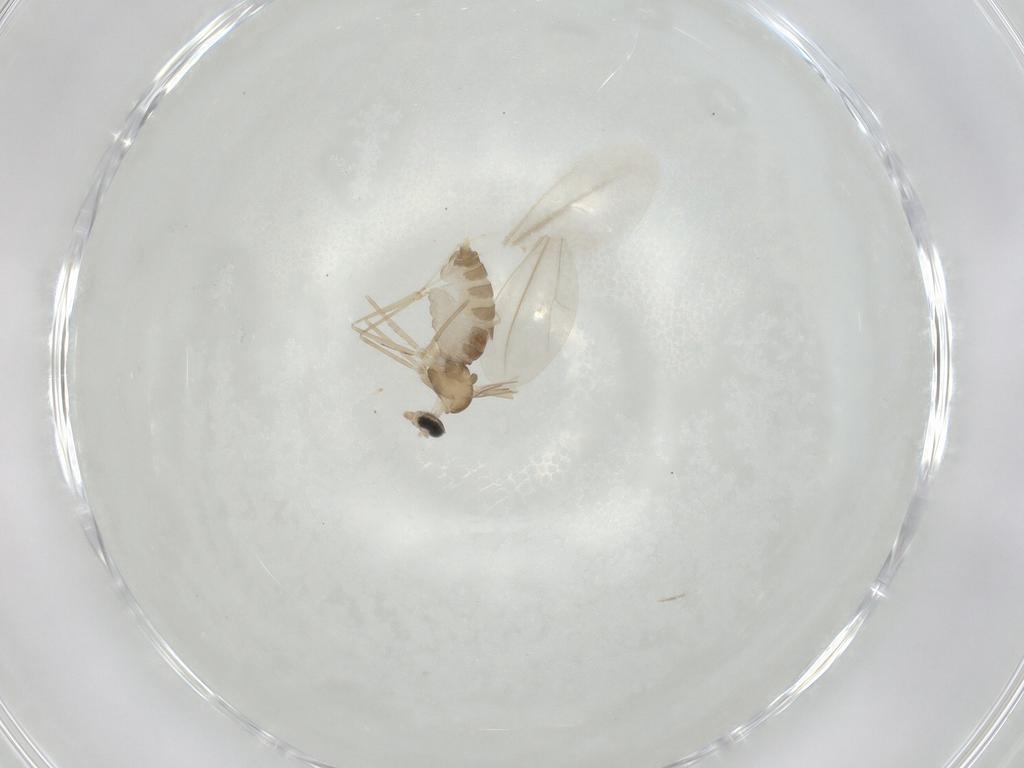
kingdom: Animalia
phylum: Arthropoda
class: Insecta
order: Diptera
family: Cecidomyiidae
